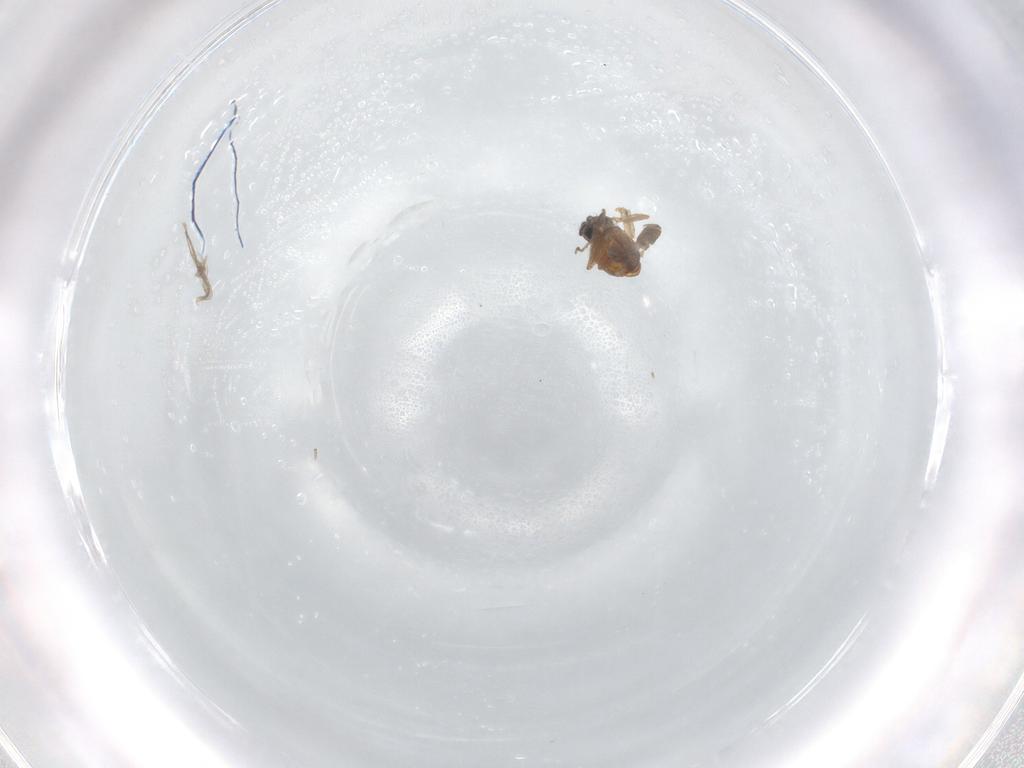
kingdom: Animalia
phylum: Arthropoda
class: Insecta
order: Diptera
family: Ceratopogonidae
